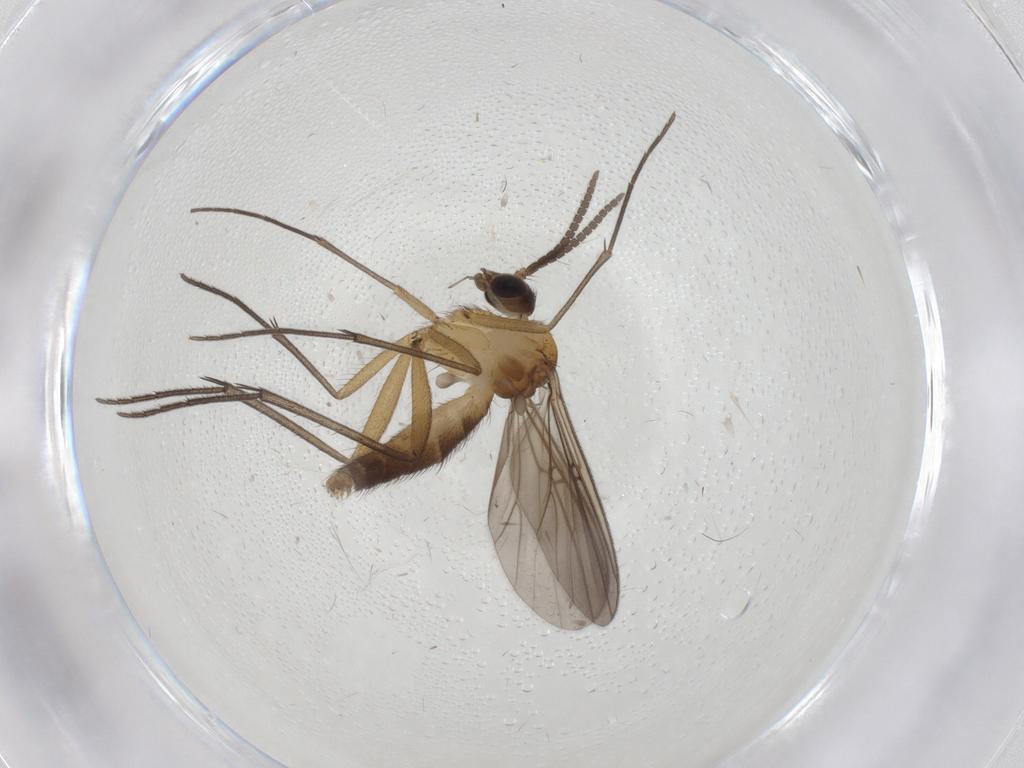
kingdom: Animalia
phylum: Arthropoda
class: Insecta
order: Diptera
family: Mycetophilidae
